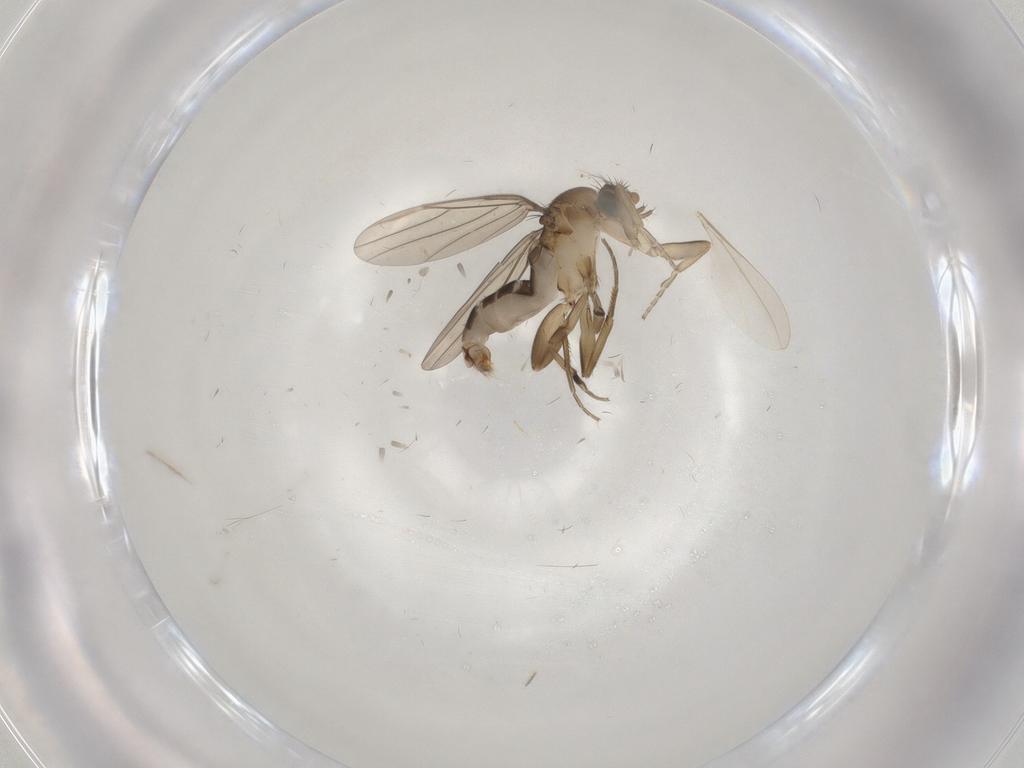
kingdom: Animalia
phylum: Arthropoda
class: Insecta
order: Diptera
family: Phoridae
